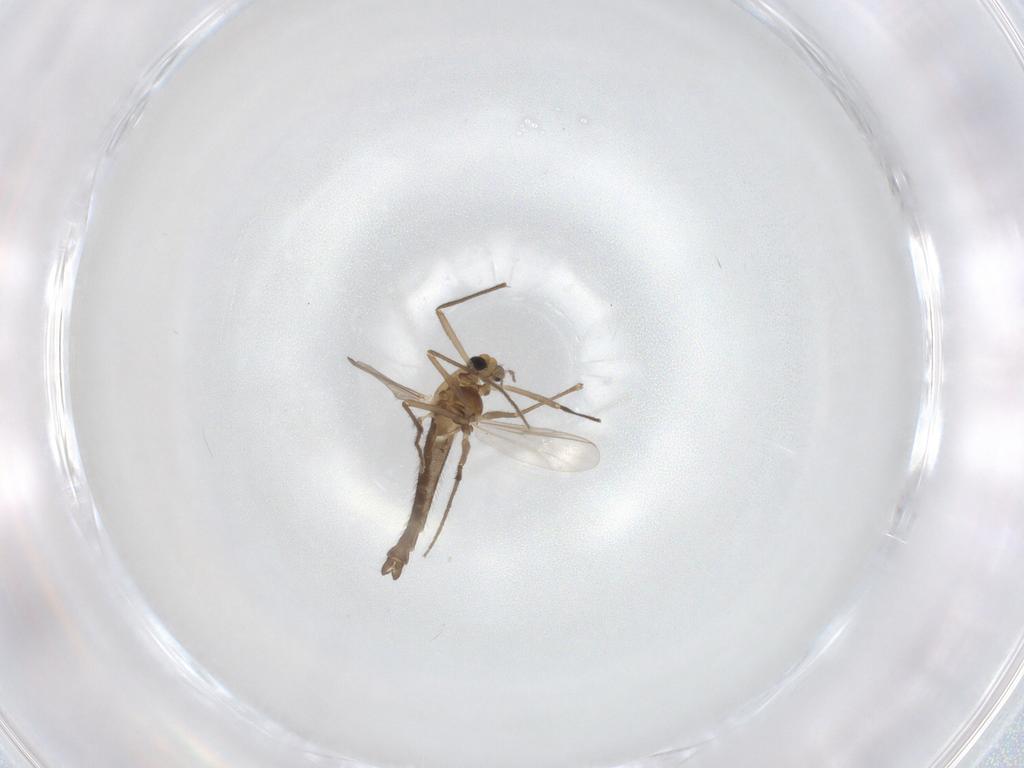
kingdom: Animalia
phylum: Arthropoda
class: Insecta
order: Diptera
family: Chironomidae
